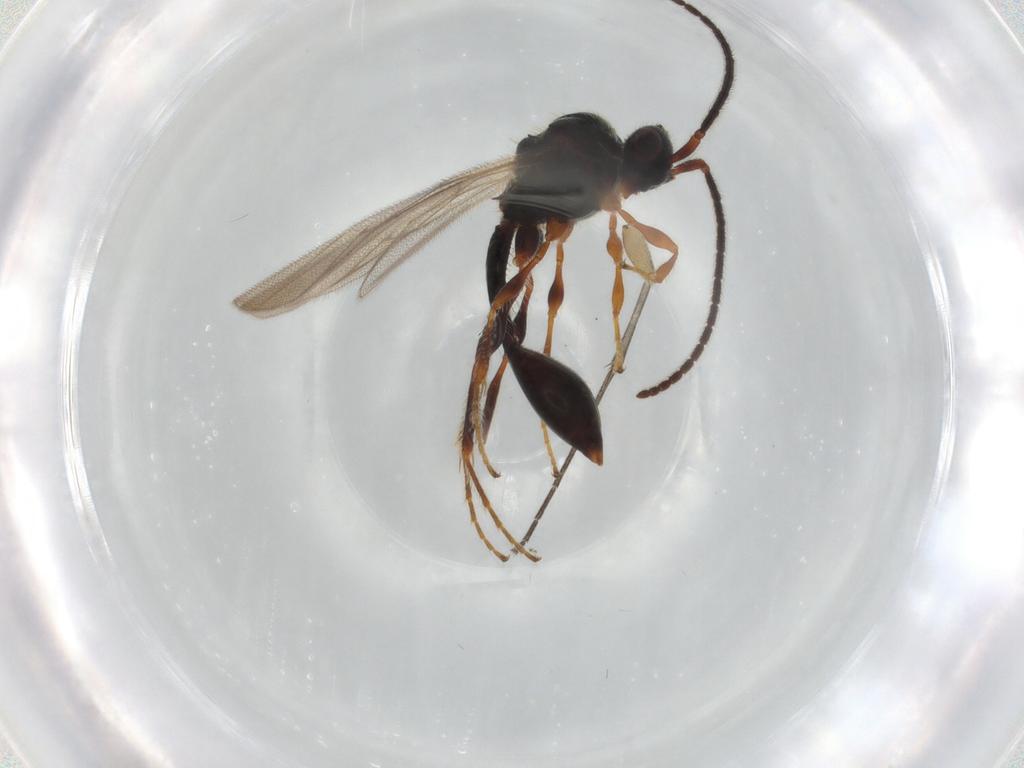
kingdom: Animalia
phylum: Arthropoda
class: Insecta
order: Hymenoptera
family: Diapriidae
